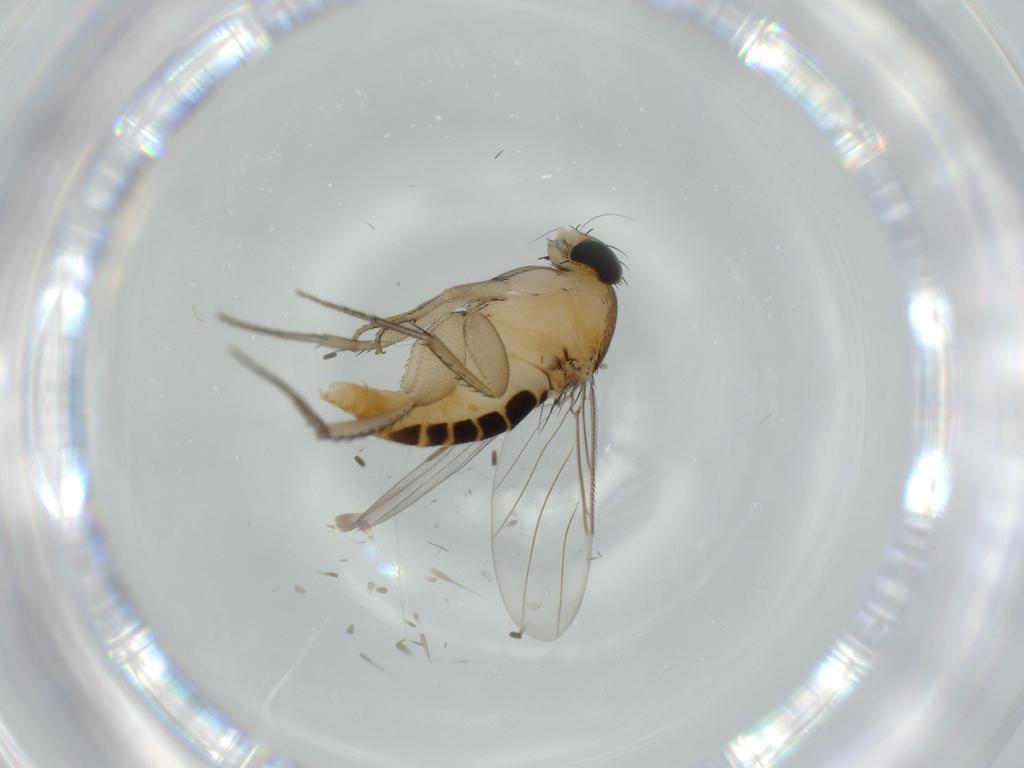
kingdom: Animalia
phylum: Arthropoda
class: Insecta
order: Diptera
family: Phoridae
